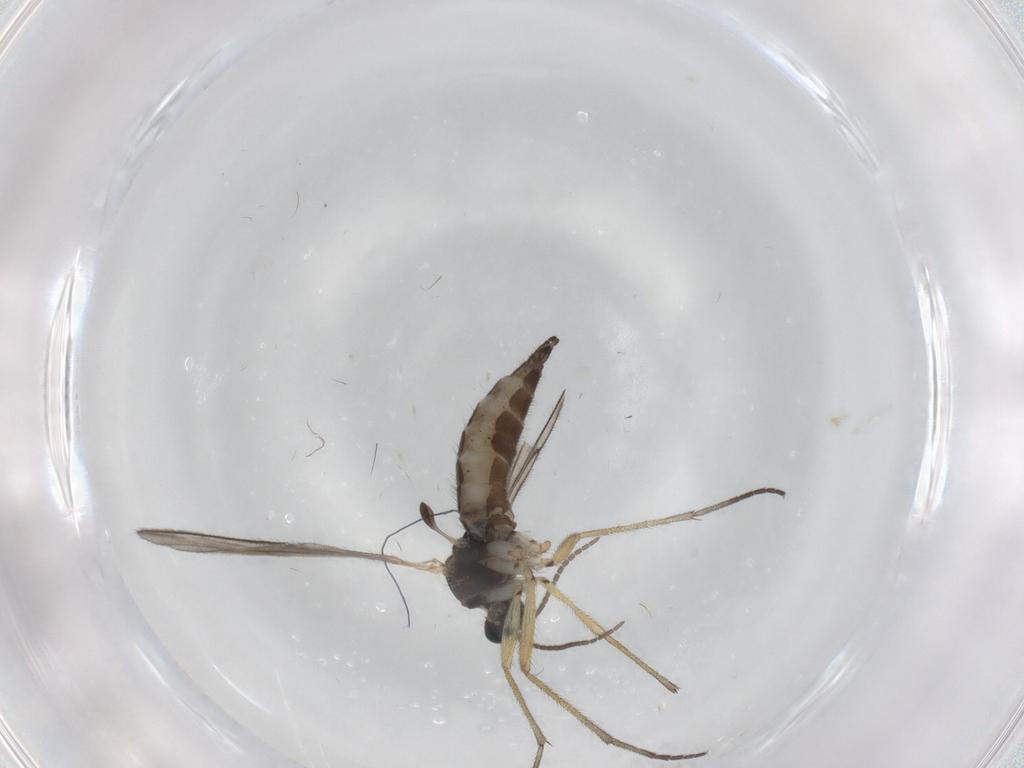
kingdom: Animalia
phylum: Arthropoda
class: Insecta
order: Diptera
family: Sciaridae
